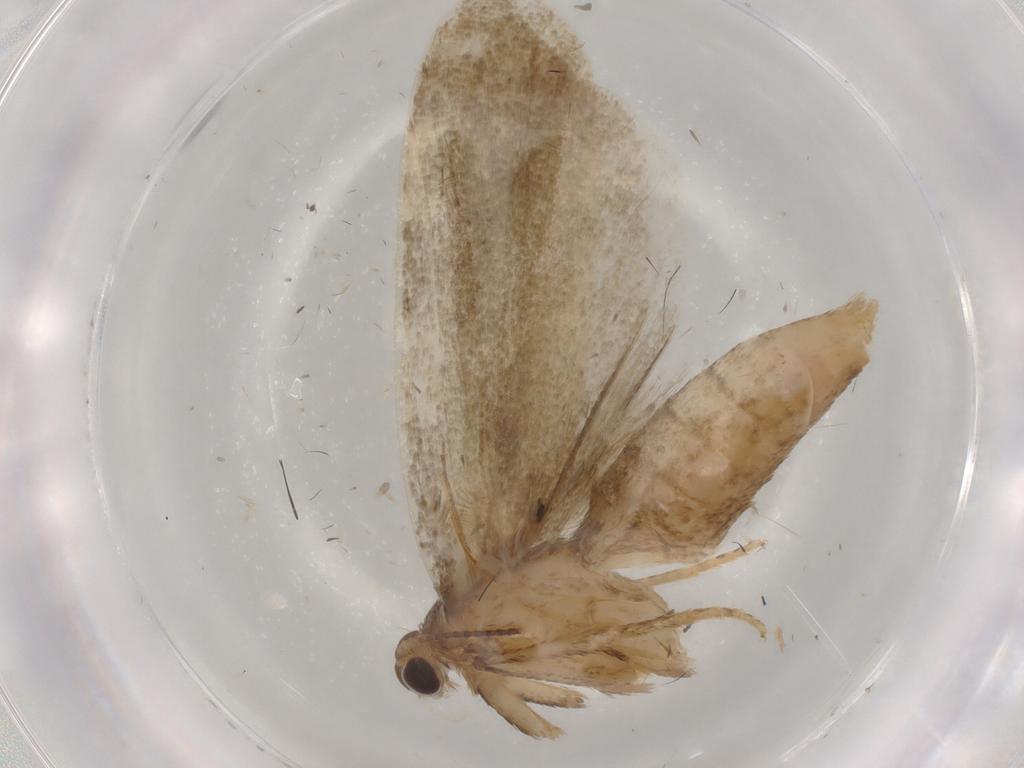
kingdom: Animalia
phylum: Arthropoda
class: Insecta
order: Lepidoptera
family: Tortricidae
